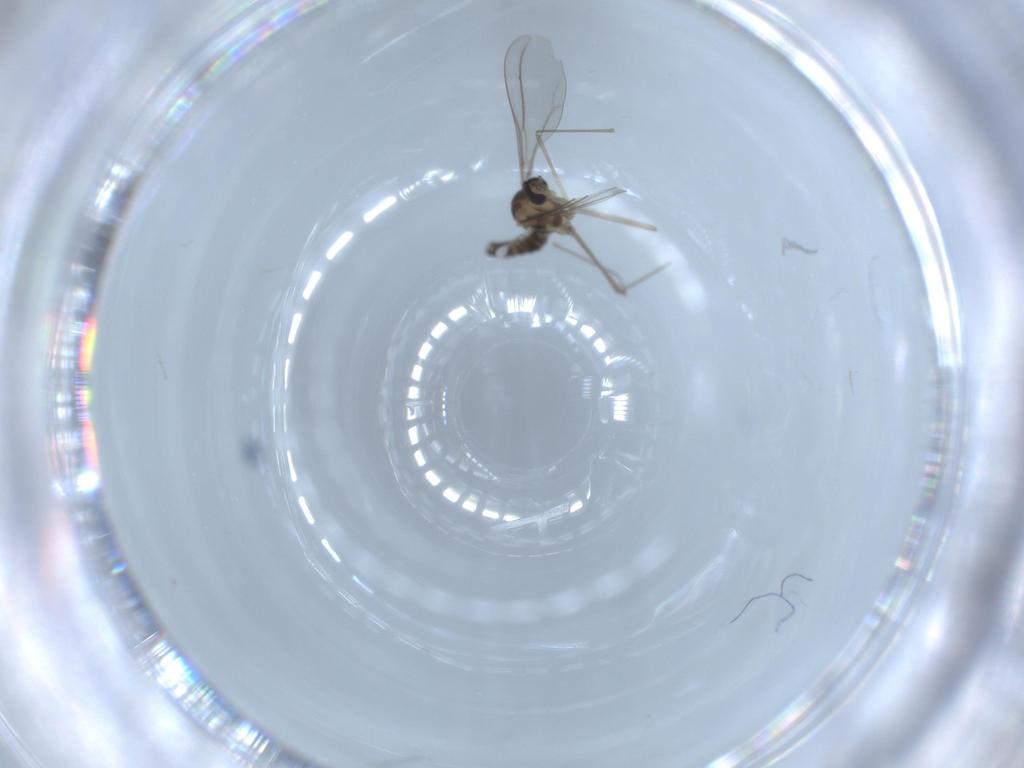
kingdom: Animalia
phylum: Arthropoda
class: Insecta
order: Diptera
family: Cecidomyiidae
